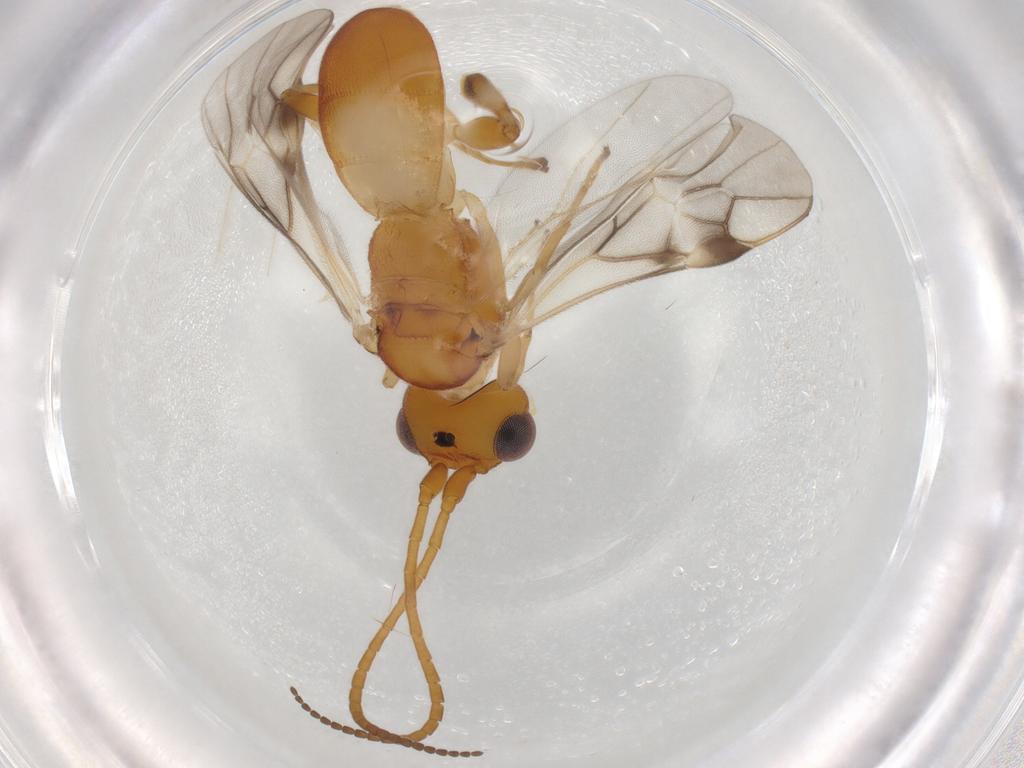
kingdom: Animalia
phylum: Arthropoda
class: Insecta
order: Hymenoptera
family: Braconidae
